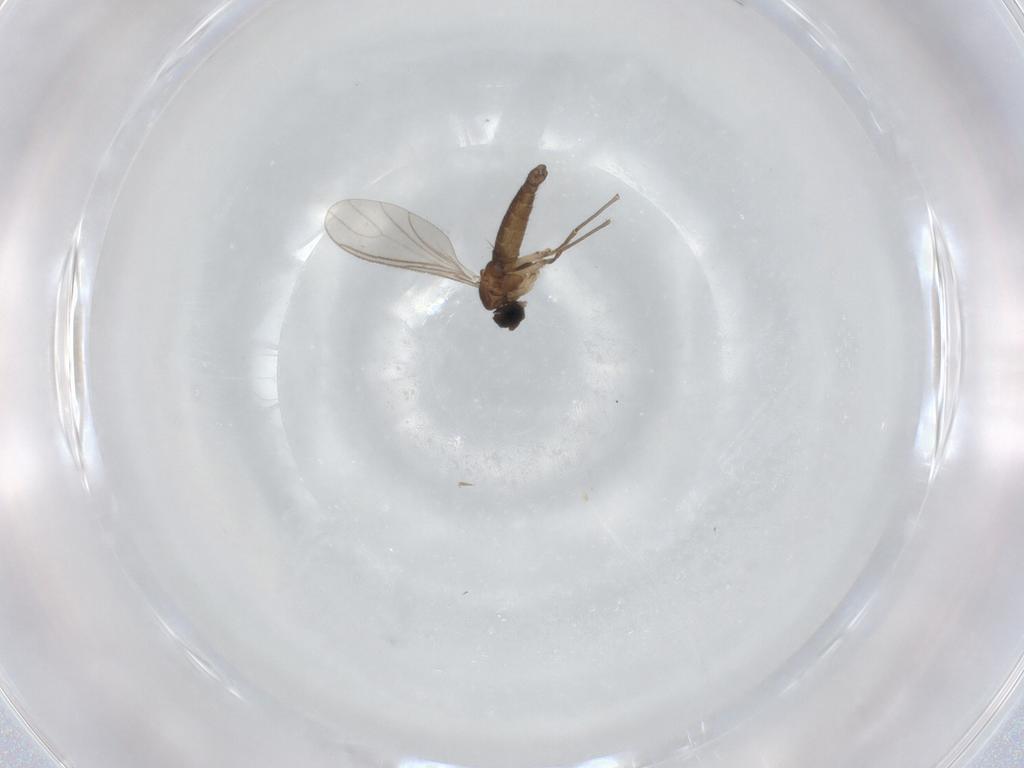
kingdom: Animalia
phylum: Arthropoda
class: Insecta
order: Diptera
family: Sciaridae
